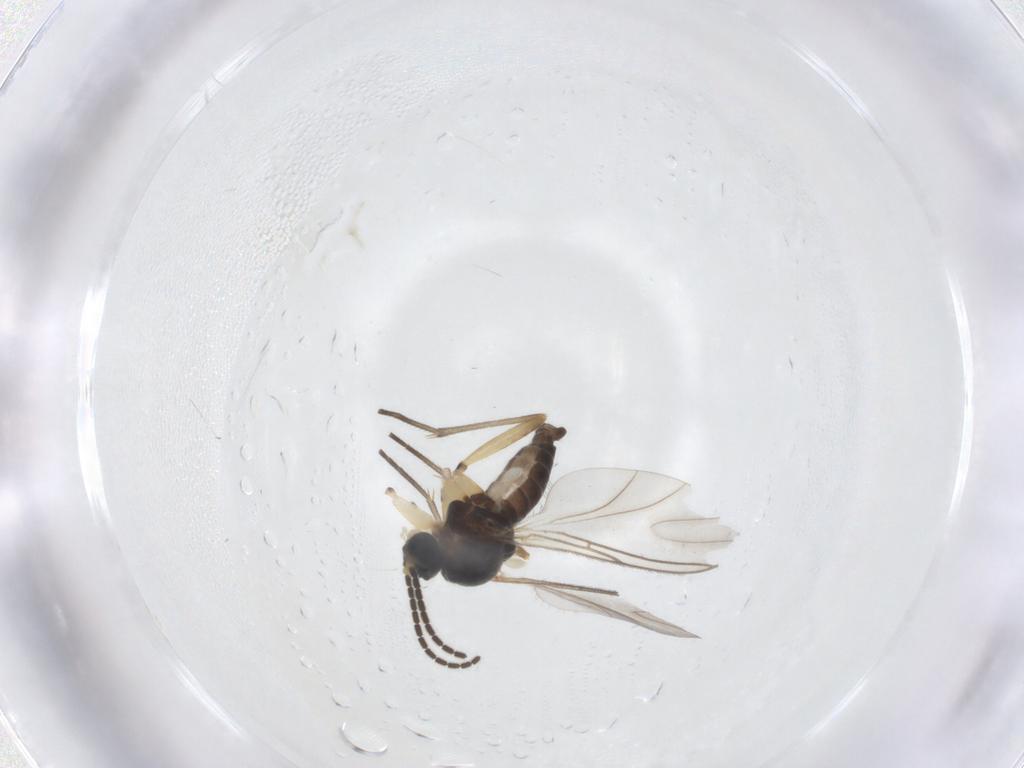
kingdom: Animalia
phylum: Arthropoda
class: Insecta
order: Diptera
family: Sciaridae
